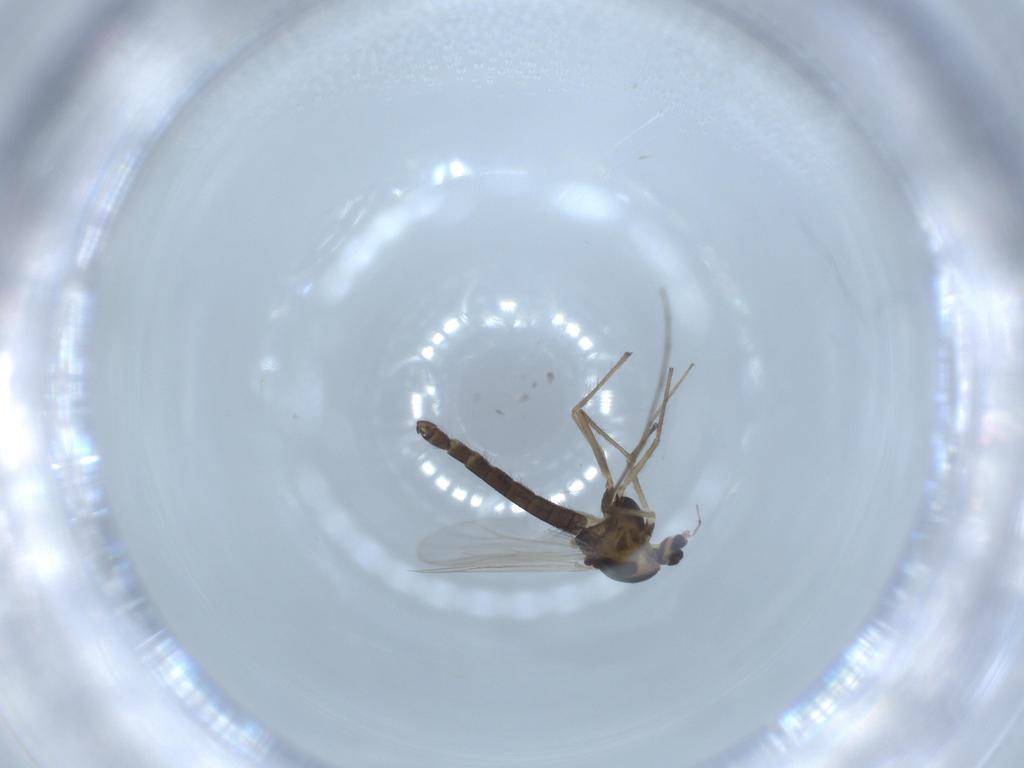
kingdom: Animalia
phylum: Arthropoda
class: Insecta
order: Diptera
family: Chironomidae
